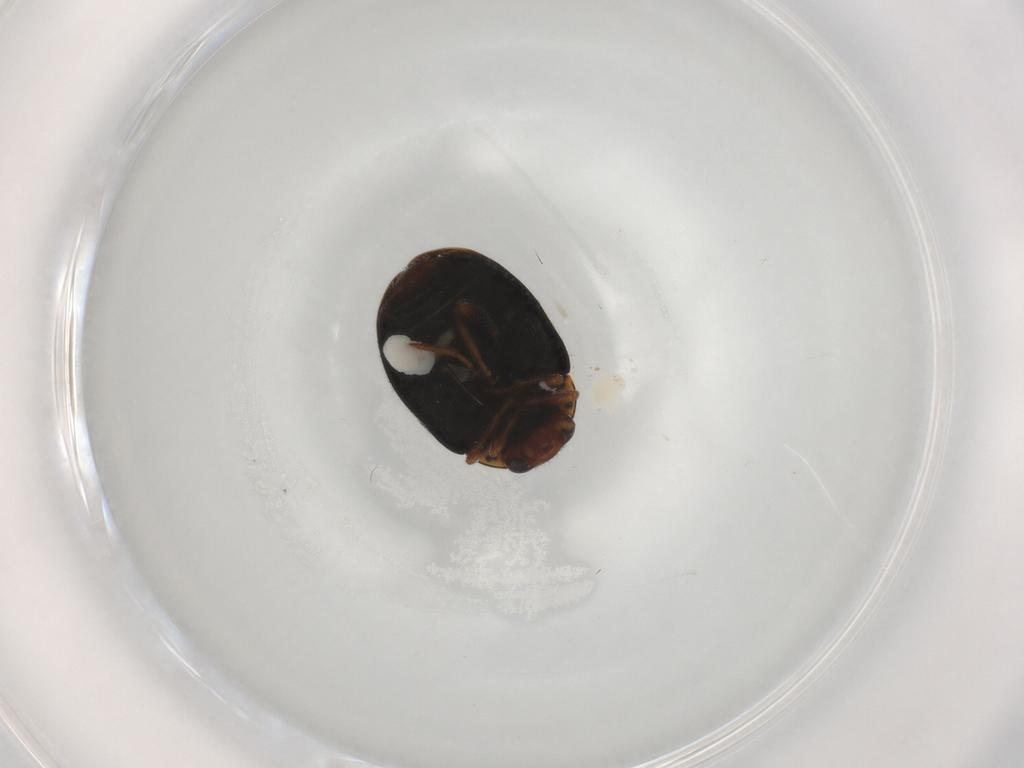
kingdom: Animalia
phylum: Arthropoda
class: Insecta
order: Coleoptera
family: Coccinellidae
